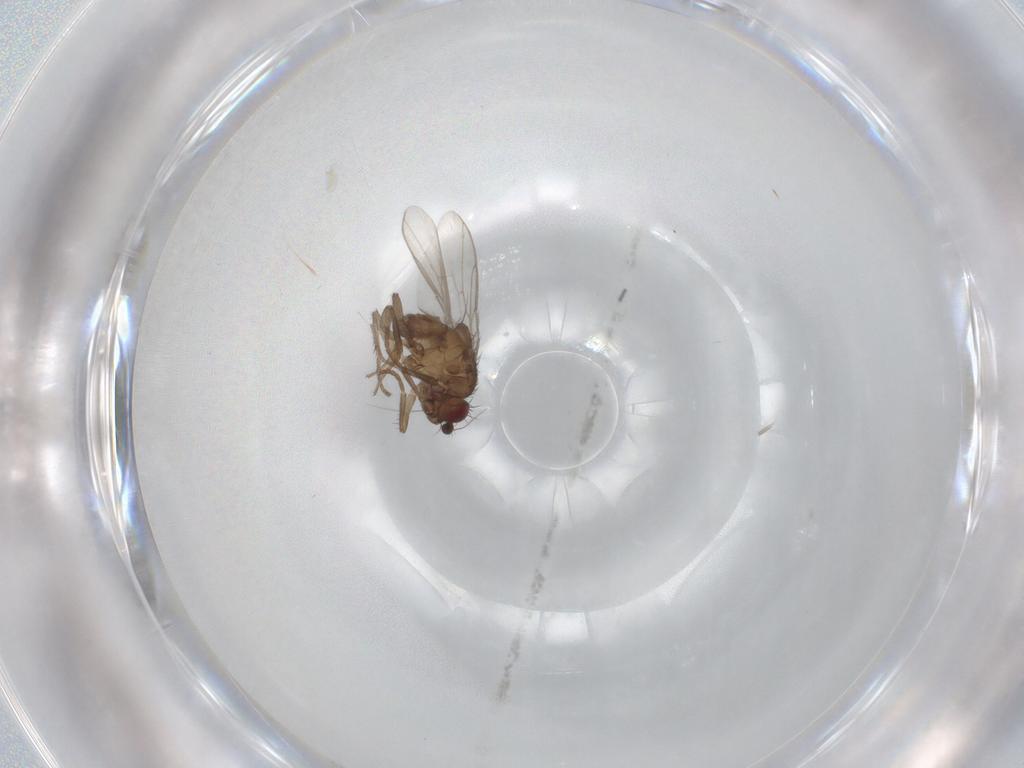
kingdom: Animalia
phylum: Arthropoda
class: Insecta
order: Diptera
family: Sphaeroceridae
